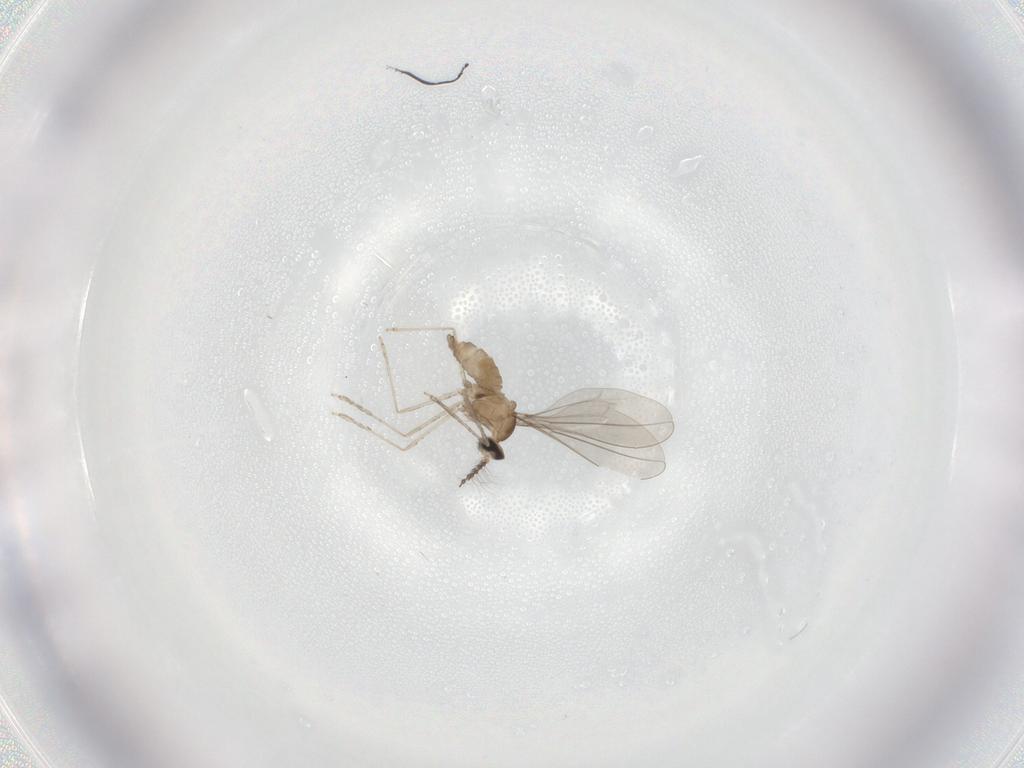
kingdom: Animalia
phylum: Arthropoda
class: Insecta
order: Diptera
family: Cecidomyiidae
